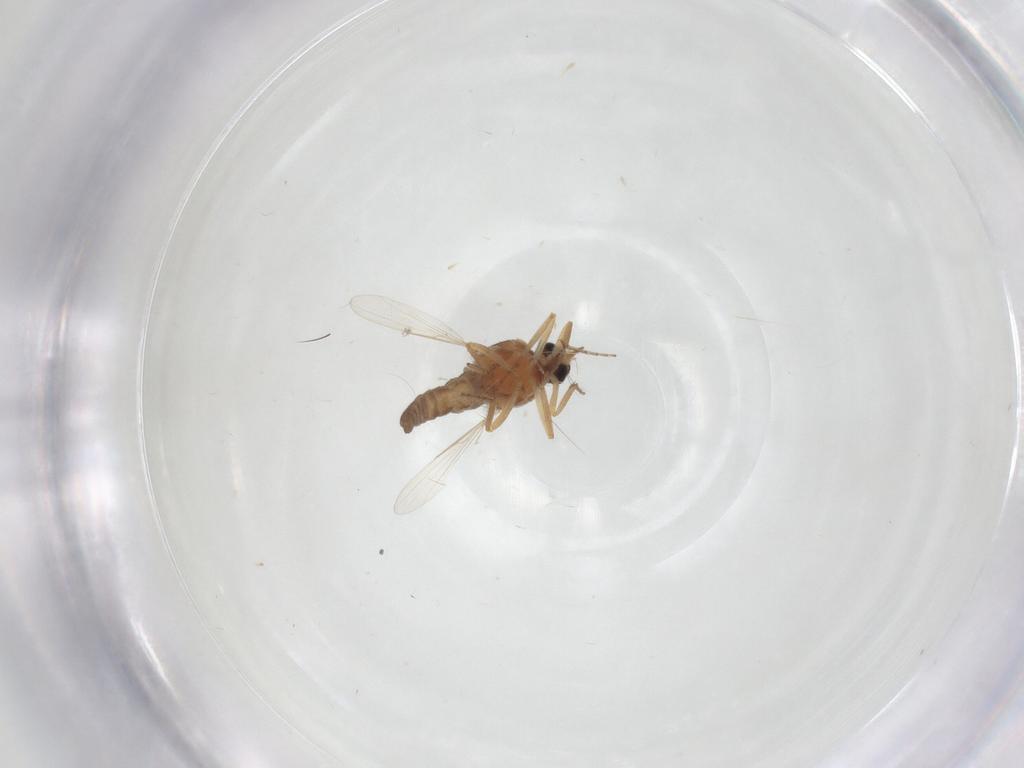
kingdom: Animalia
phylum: Arthropoda
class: Insecta
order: Diptera
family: Ceratopogonidae
